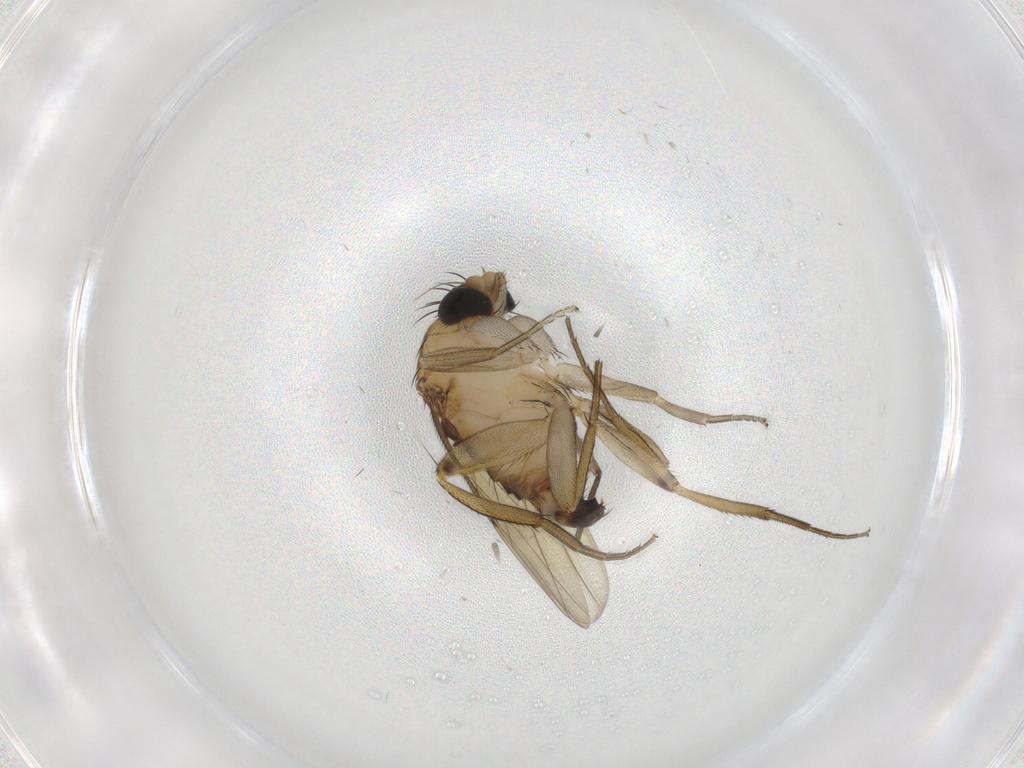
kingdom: Animalia
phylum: Arthropoda
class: Insecta
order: Diptera
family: Phoridae
